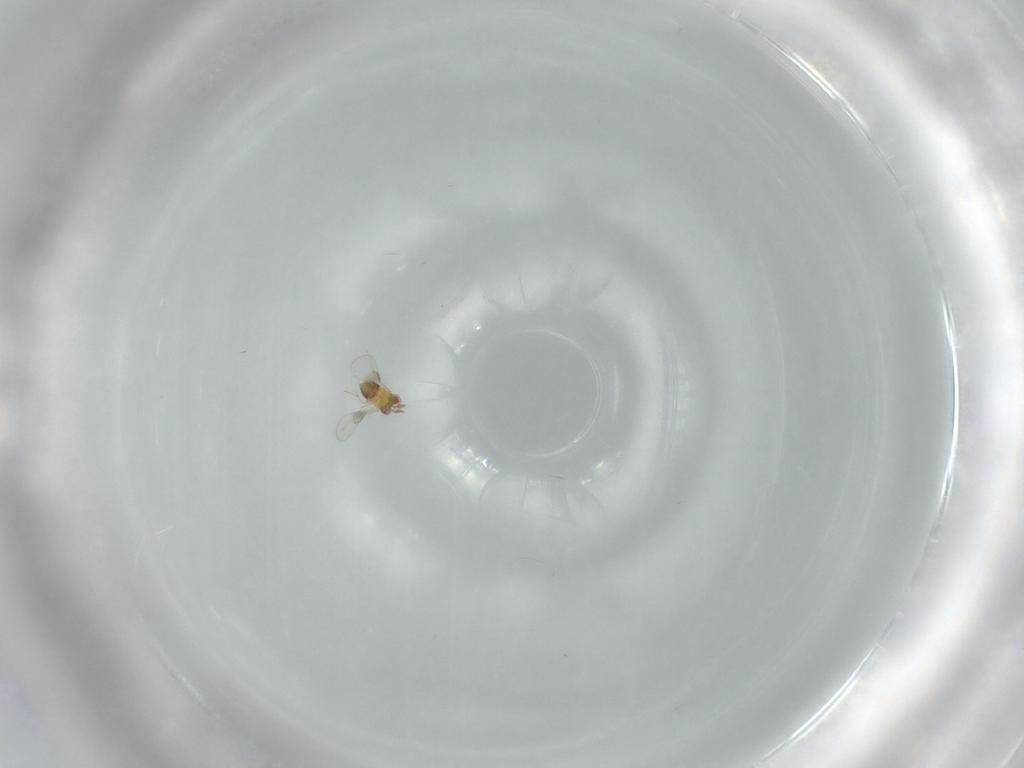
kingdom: Animalia
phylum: Arthropoda
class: Insecta
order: Hymenoptera
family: Trichogrammatidae
